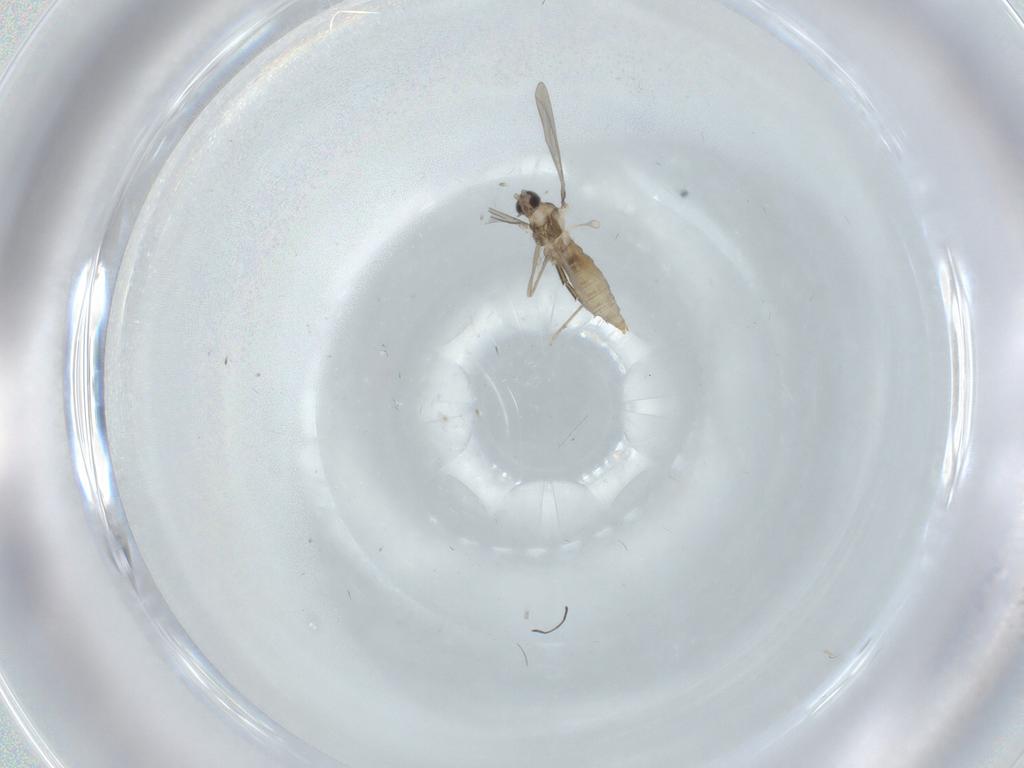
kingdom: Animalia
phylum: Arthropoda
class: Insecta
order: Diptera
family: Cecidomyiidae
